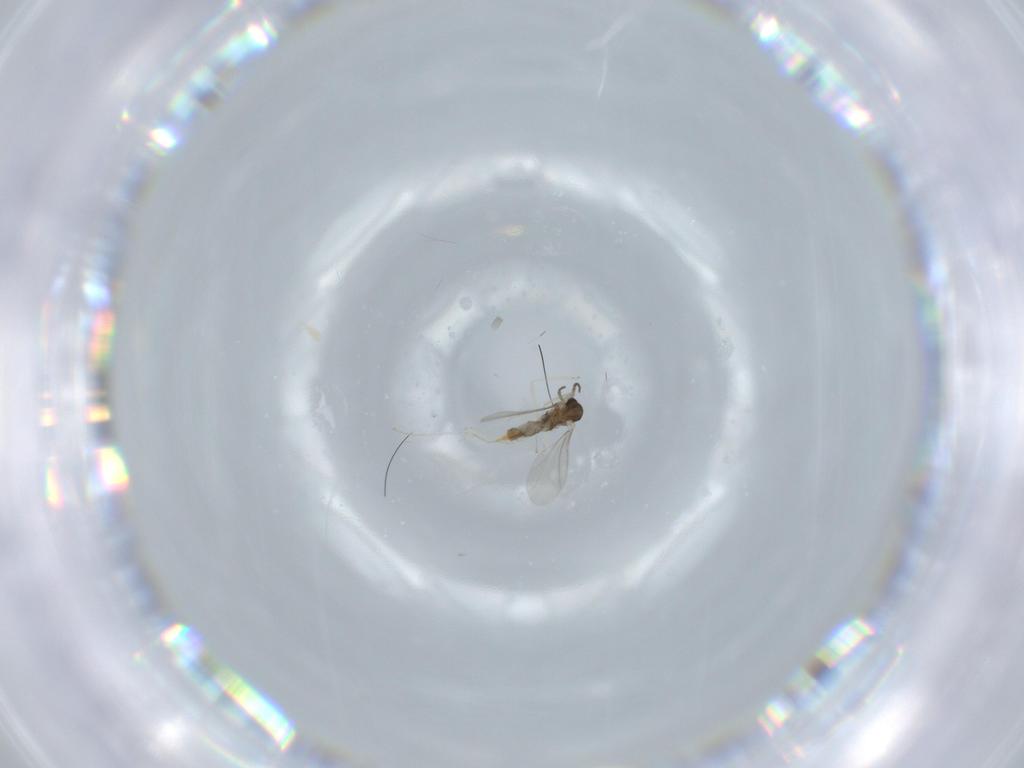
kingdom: Animalia
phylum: Arthropoda
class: Insecta
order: Diptera
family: Cecidomyiidae
